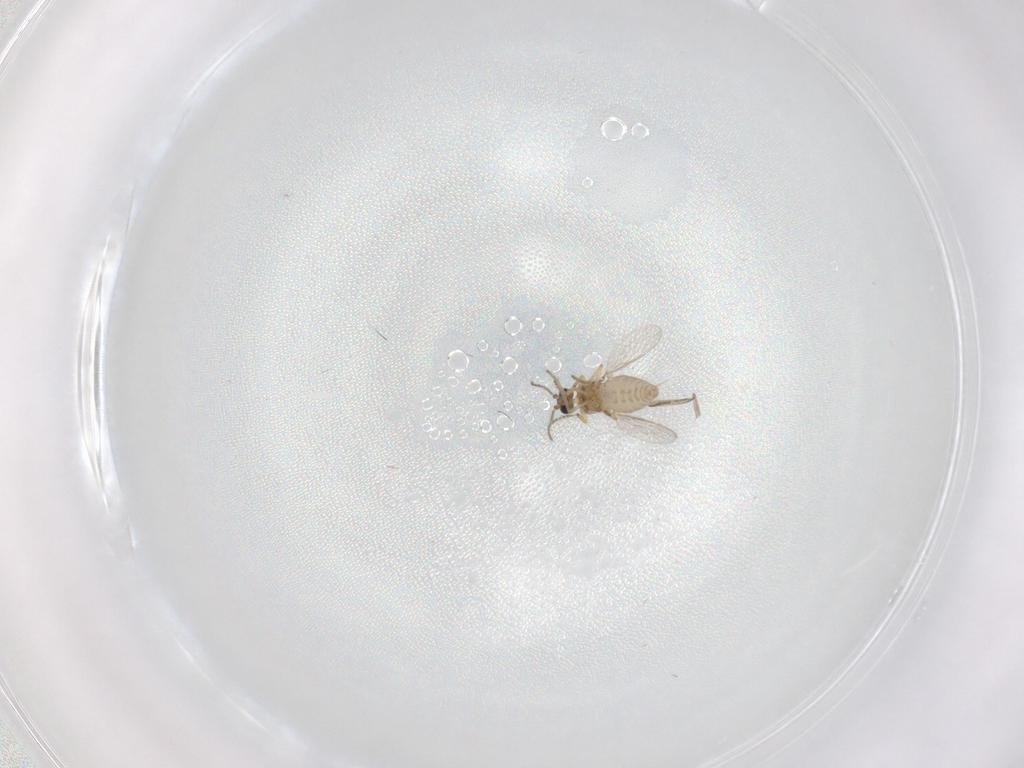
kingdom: Animalia
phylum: Arthropoda
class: Insecta
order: Diptera
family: Ceratopogonidae
